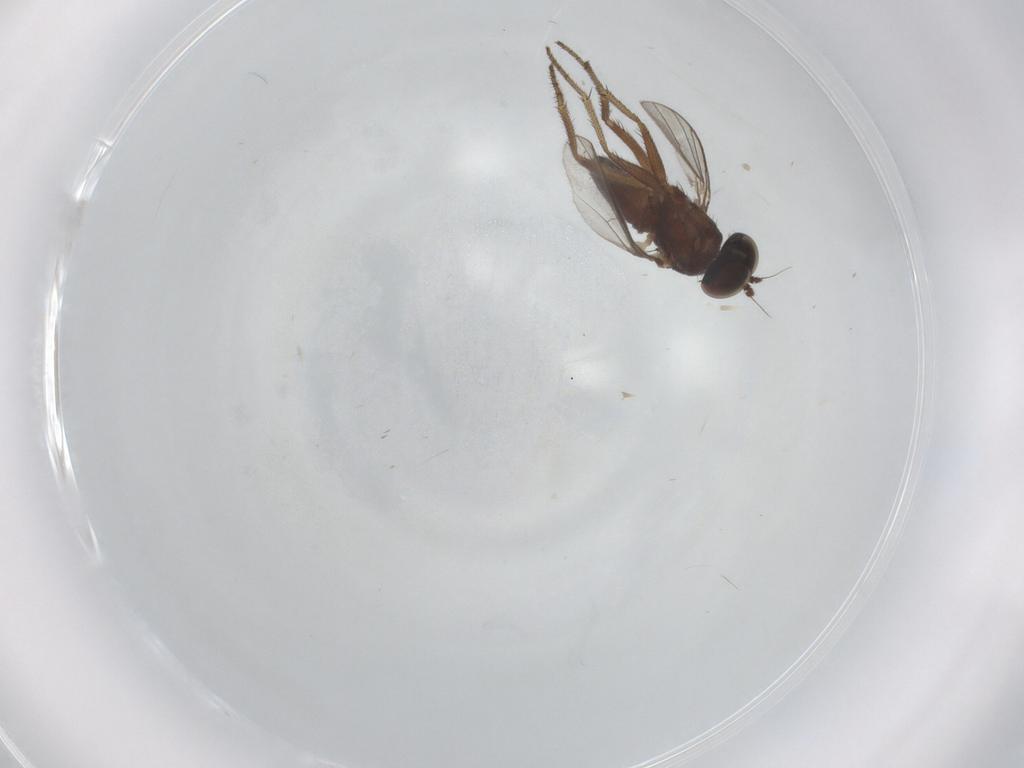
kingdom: Animalia
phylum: Arthropoda
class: Insecta
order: Diptera
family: Ceratopogonidae
